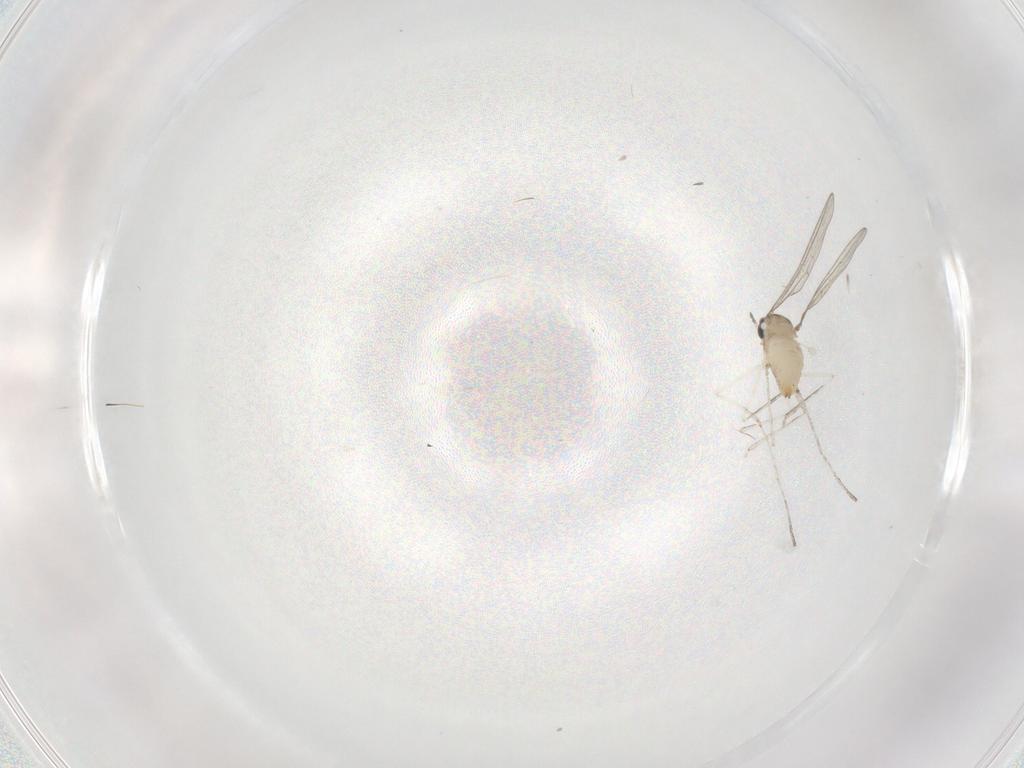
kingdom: Animalia
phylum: Arthropoda
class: Insecta
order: Diptera
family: Cecidomyiidae
